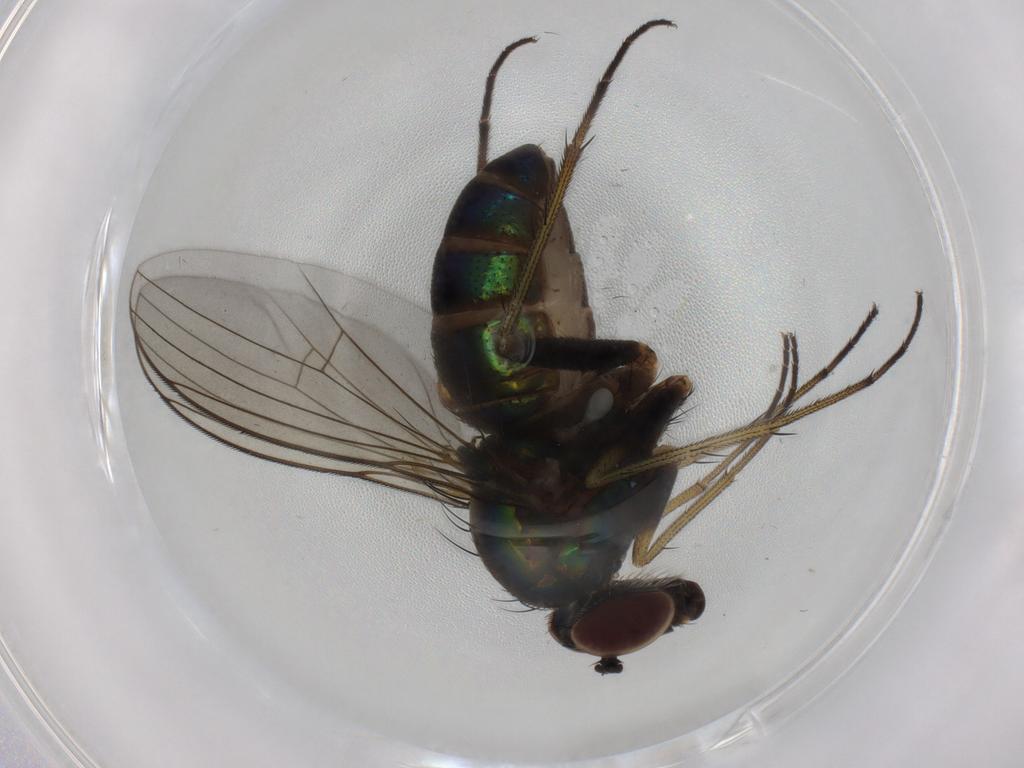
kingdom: Animalia
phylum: Arthropoda
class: Insecta
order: Diptera
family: Dolichopodidae
